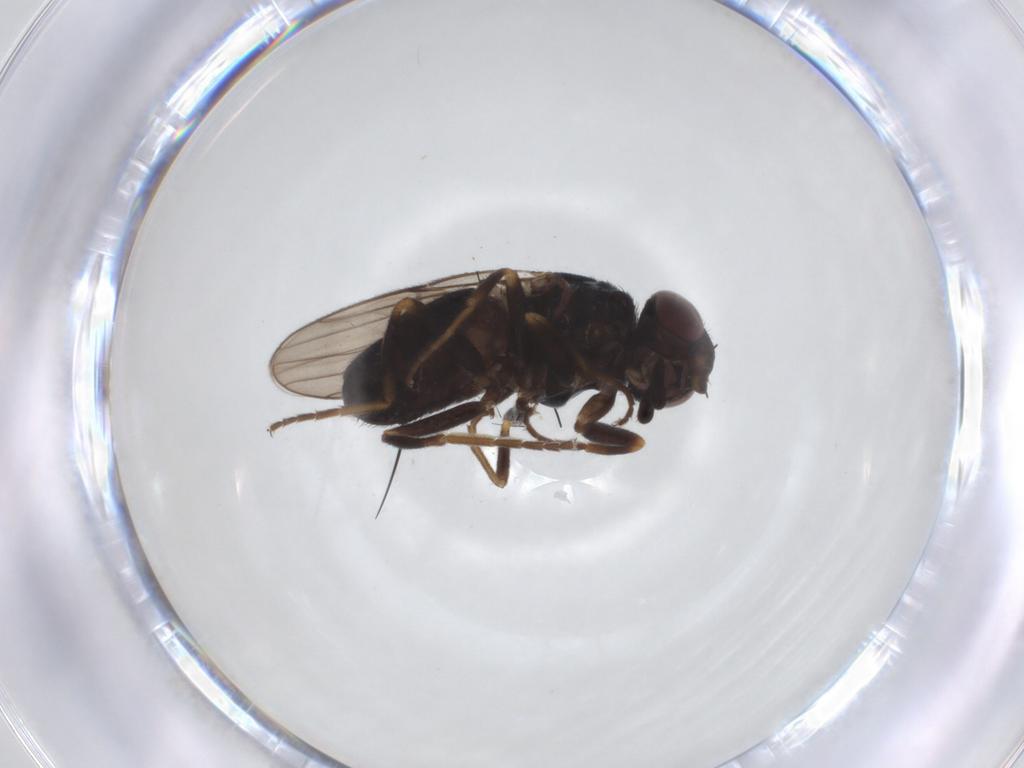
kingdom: Animalia
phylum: Arthropoda
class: Insecta
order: Diptera
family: Chloropidae
